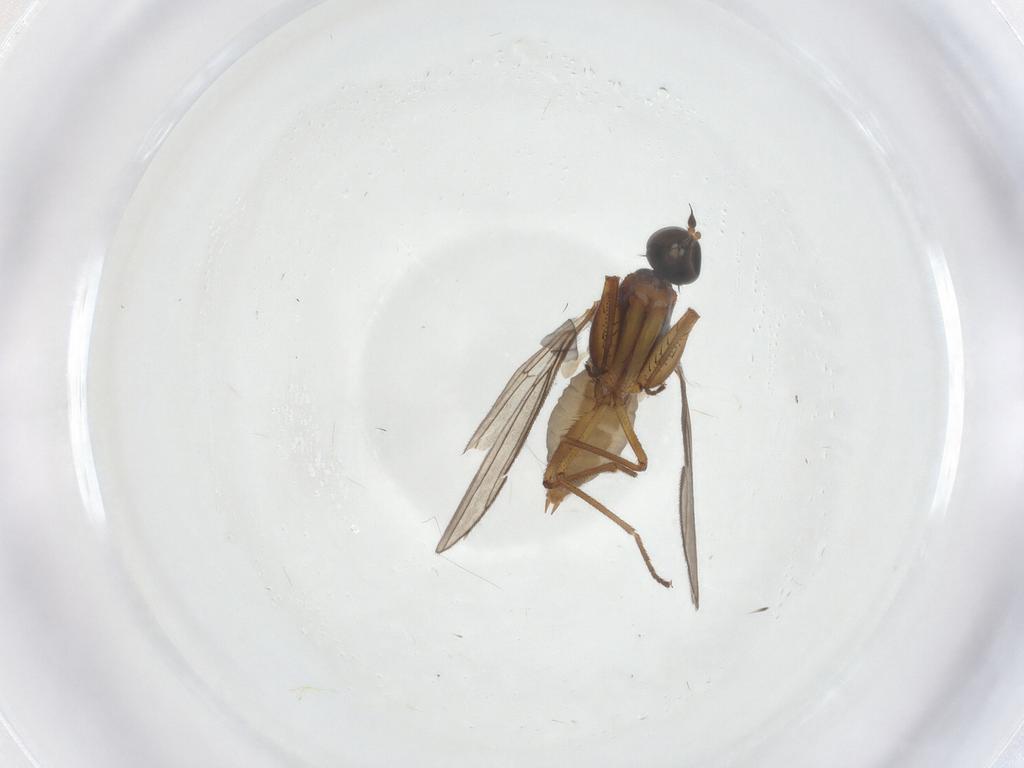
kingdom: Animalia
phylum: Arthropoda
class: Insecta
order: Diptera
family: Empididae
